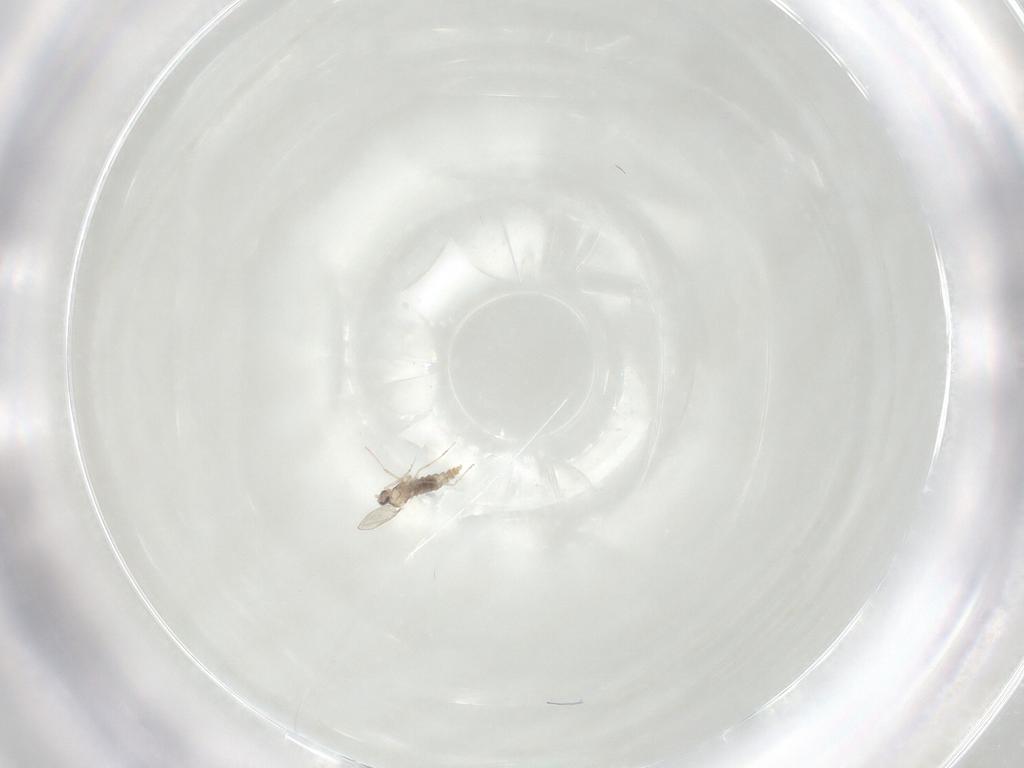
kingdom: Animalia
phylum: Arthropoda
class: Insecta
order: Diptera
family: Cecidomyiidae
